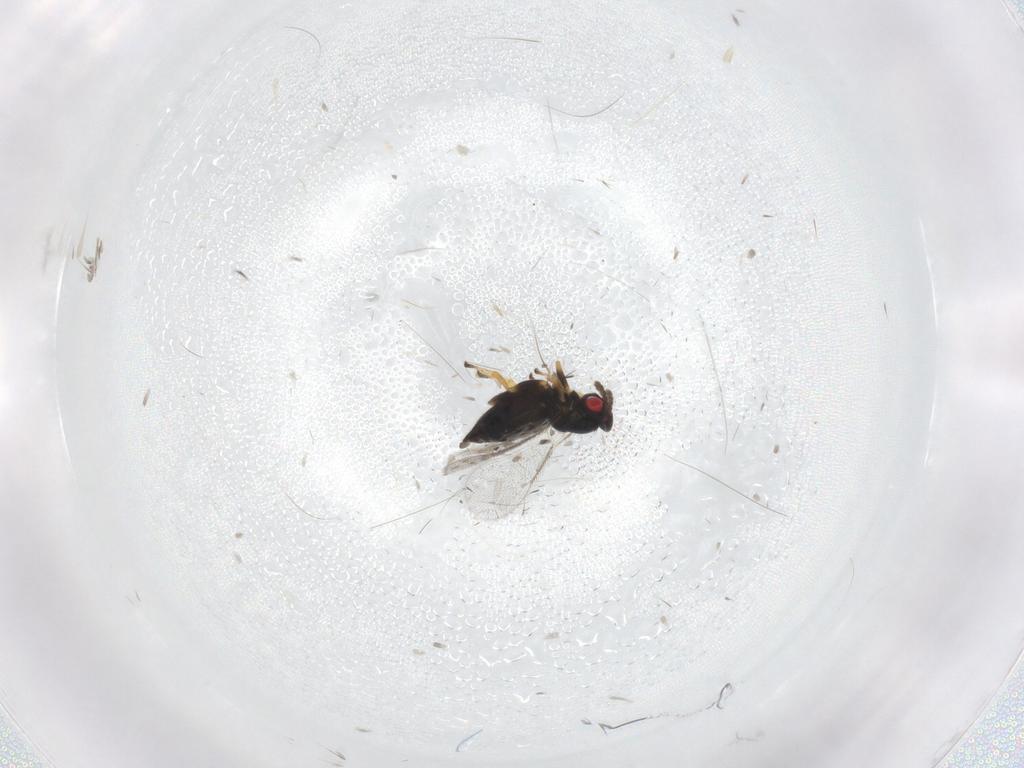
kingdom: Animalia
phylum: Arthropoda
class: Insecta
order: Hymenoptera
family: Eulophidae
